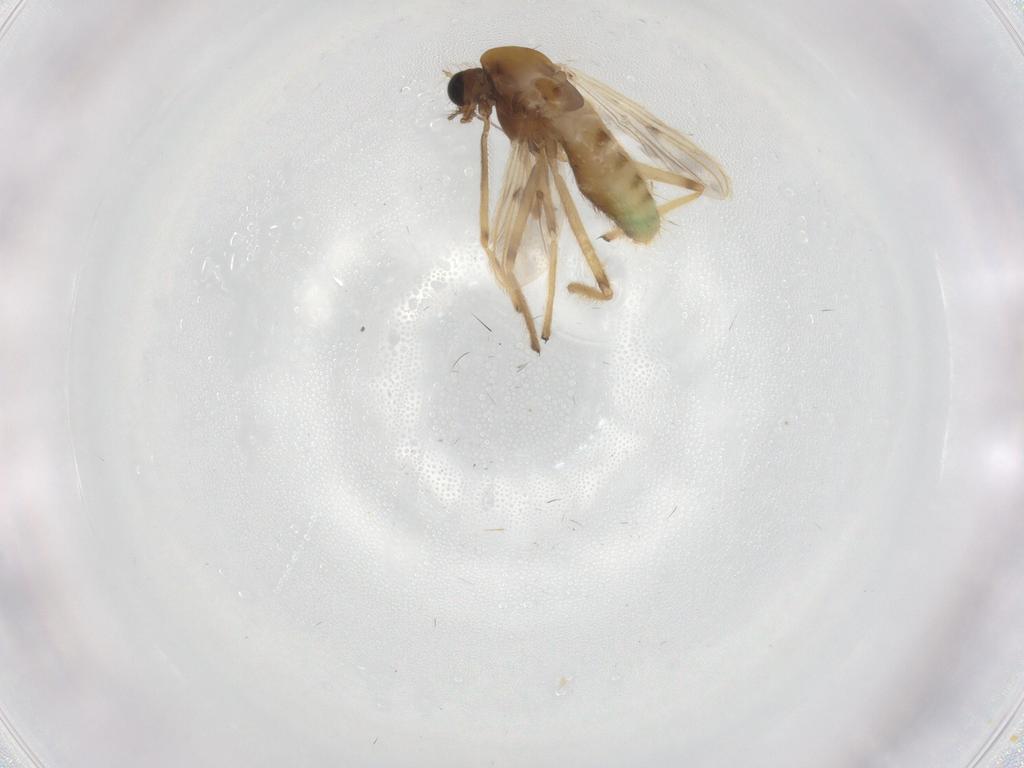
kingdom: Animalia
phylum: Arthropoda
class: Insecta
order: Diptera
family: Chironomidae
